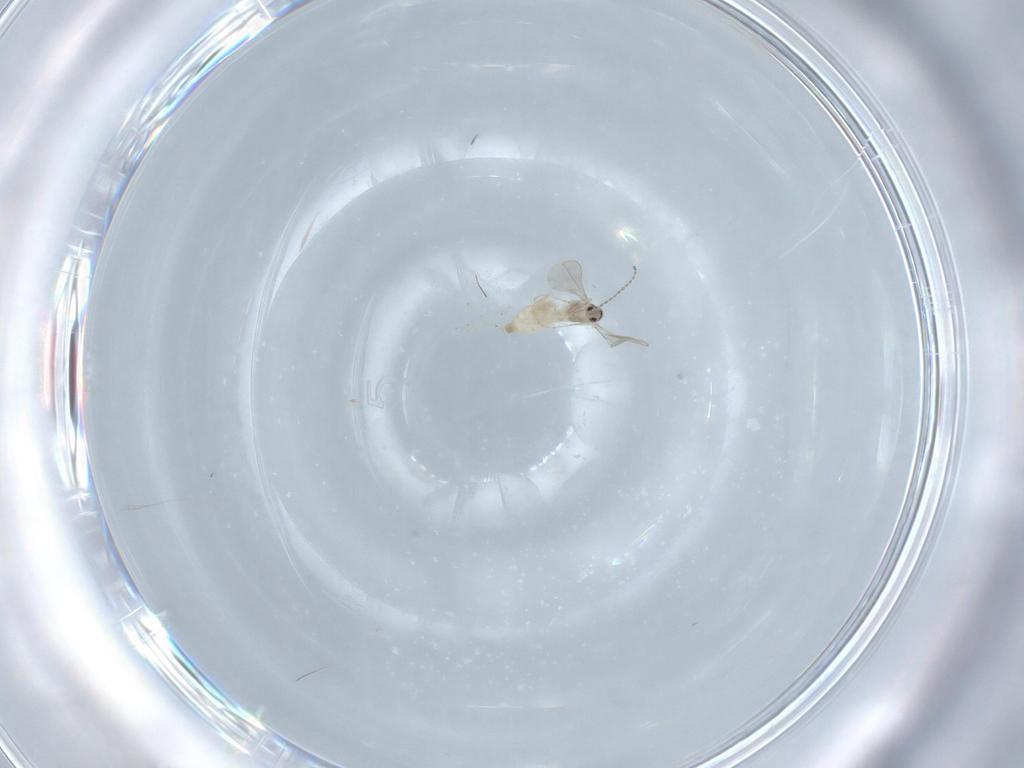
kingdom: Animalia
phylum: Arthropoda
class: Insecta
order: Diptera
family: Cecidomyiidae
